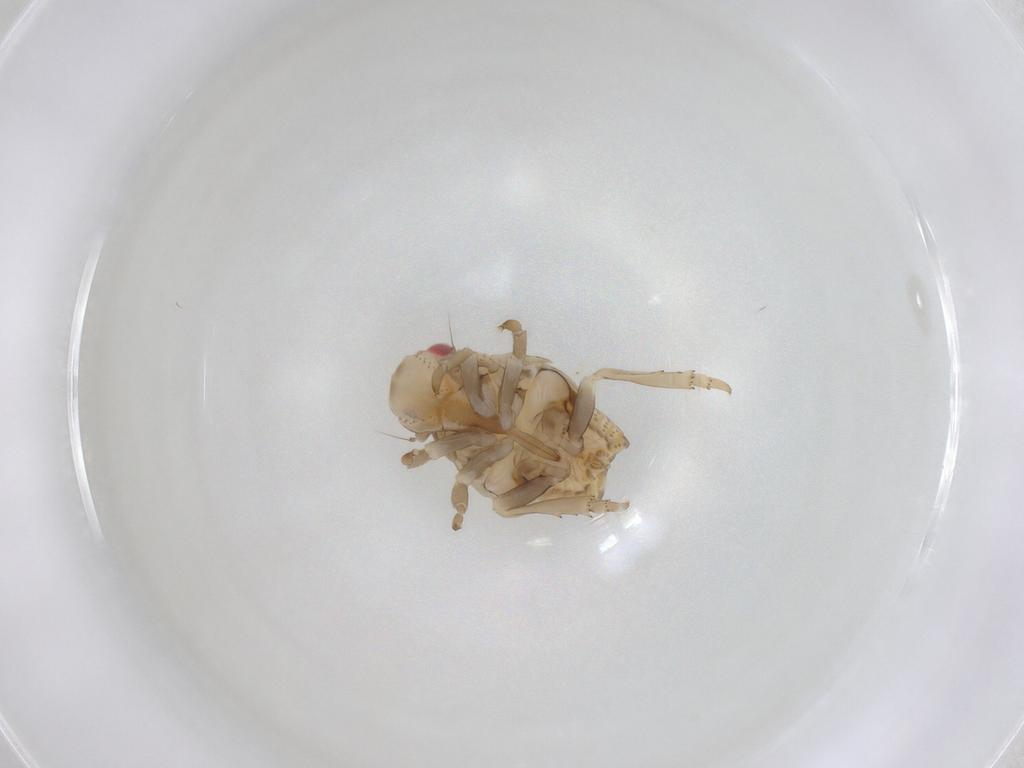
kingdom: Animalia
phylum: Arthropoda
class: Insecta
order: Hemiptera
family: Flatidae
